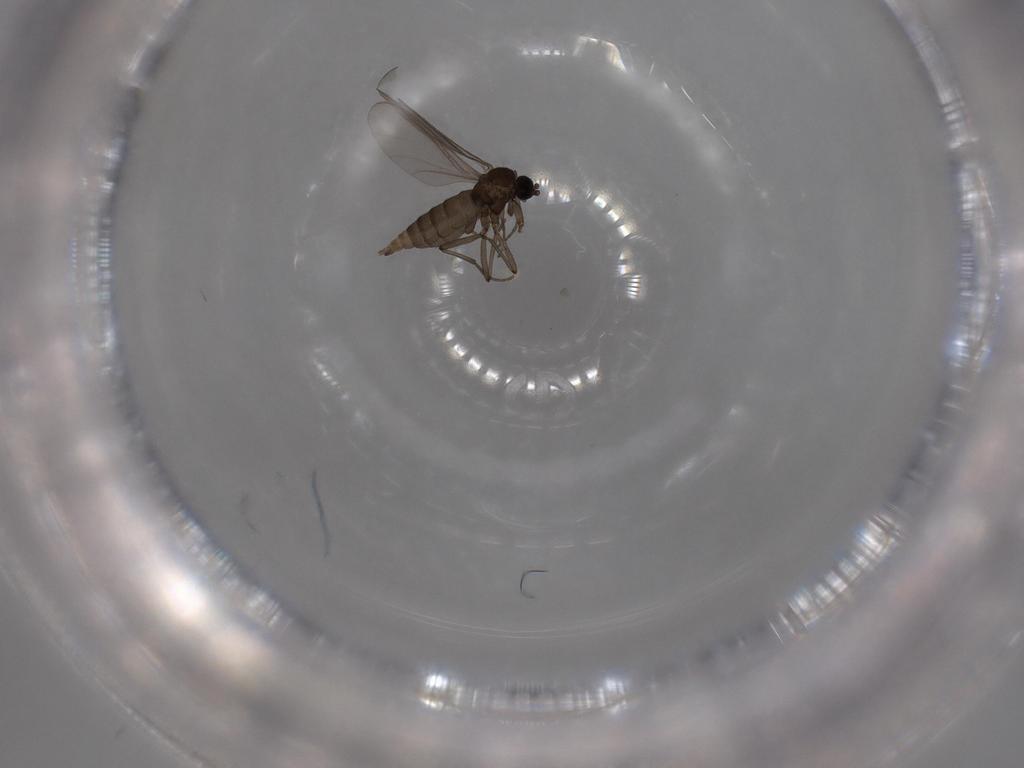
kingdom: Animalia
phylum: Arthropoda
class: Insecta
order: Diptera
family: Sciaridae
